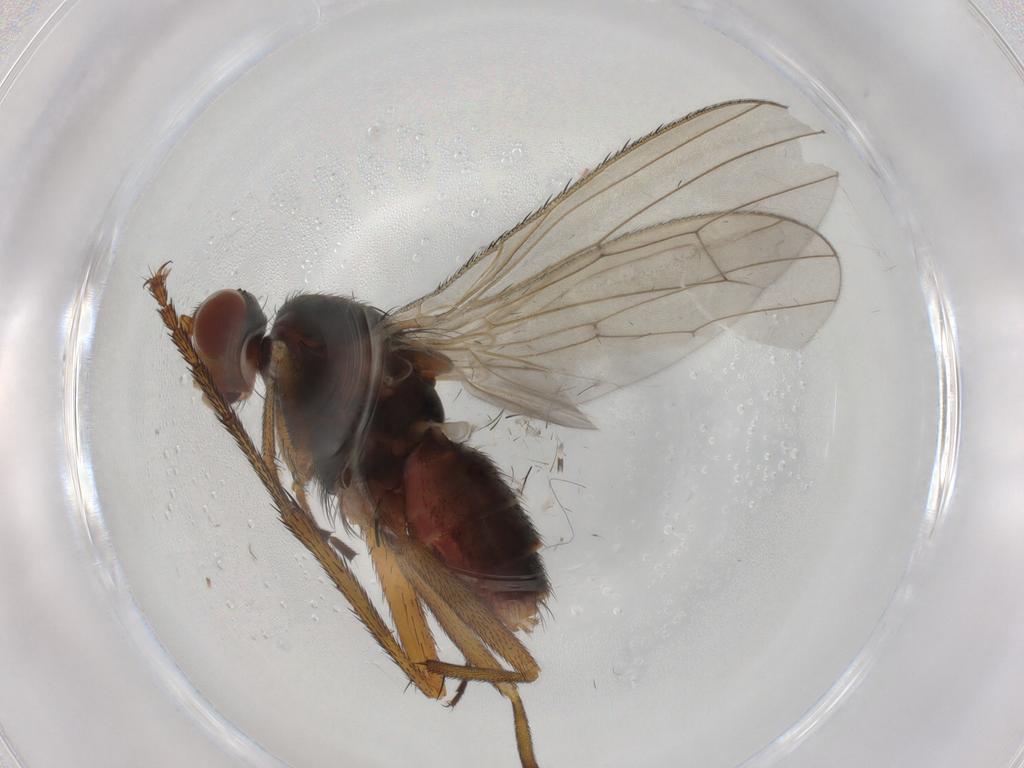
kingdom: Animalia
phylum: Arthropoda
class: Insecta
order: Diptera
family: Heleomyzidae
